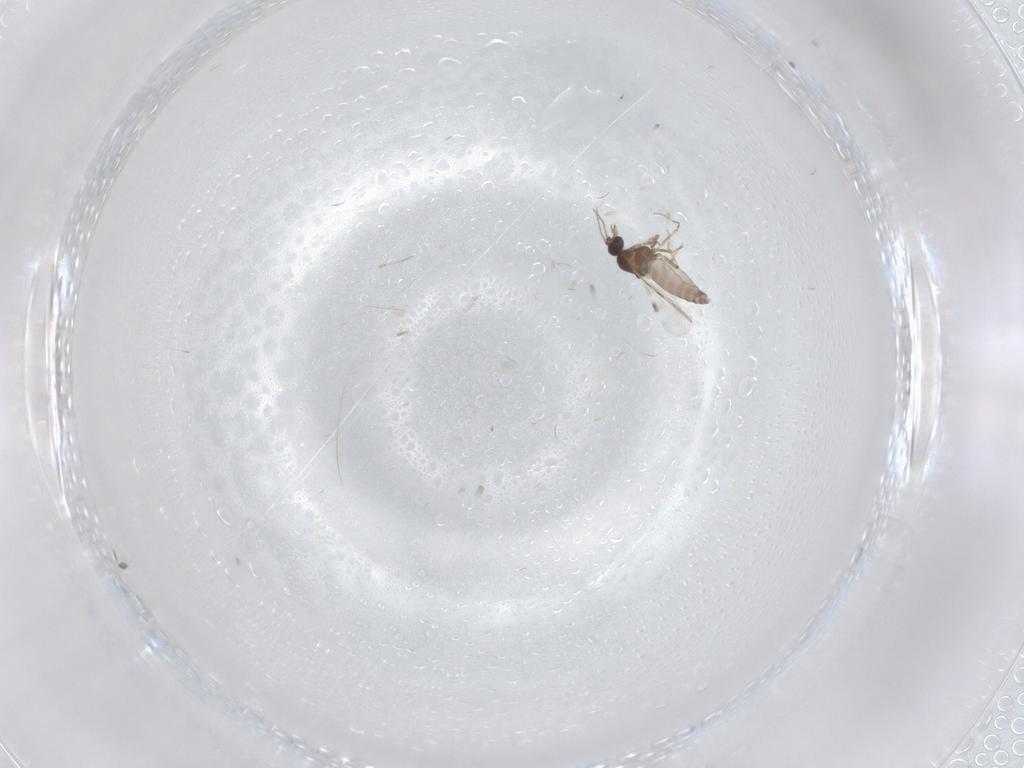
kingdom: Animalia
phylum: Arthropoda
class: Insecta
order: Diptera
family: Phoridae
